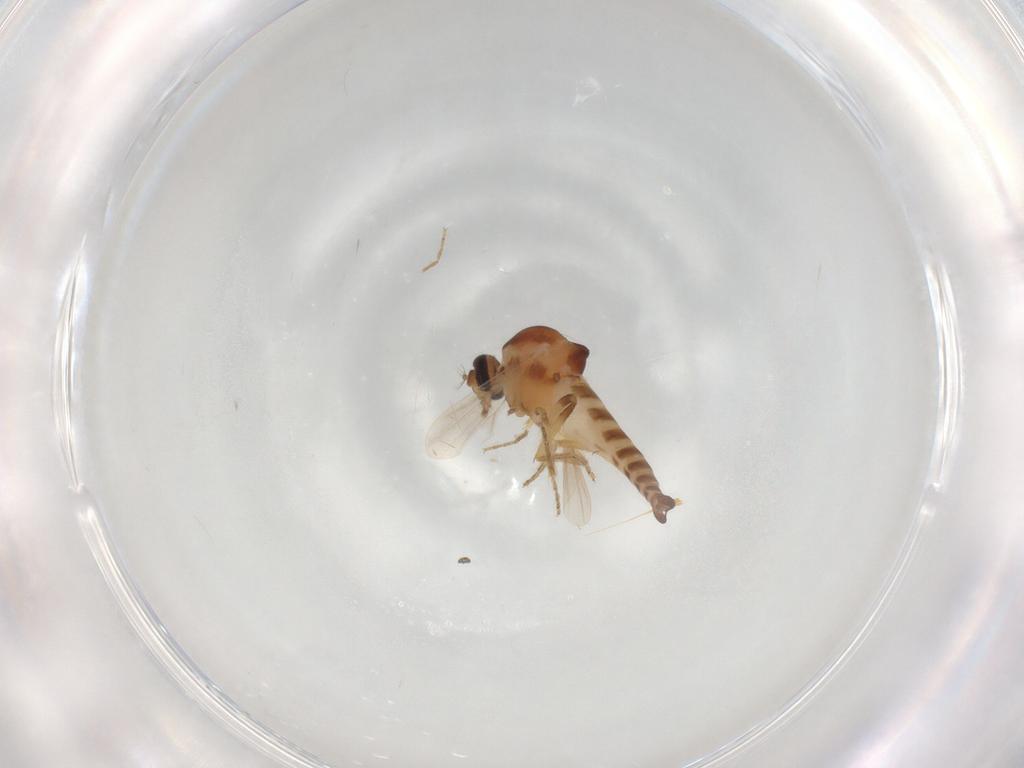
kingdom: Animalia
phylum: Arthropoda
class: Insecta
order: Diptera
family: Ceratopogonidae
